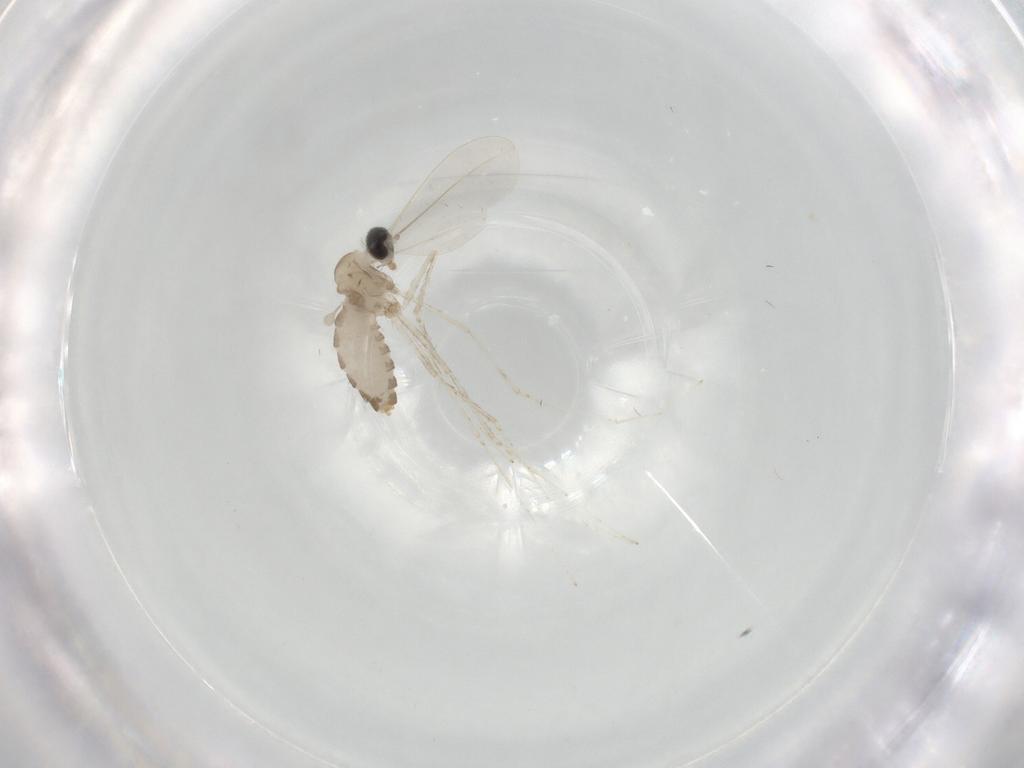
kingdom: Animalia
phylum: Arthropoda
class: Insecta
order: Diptera
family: Cecidomyiidae
